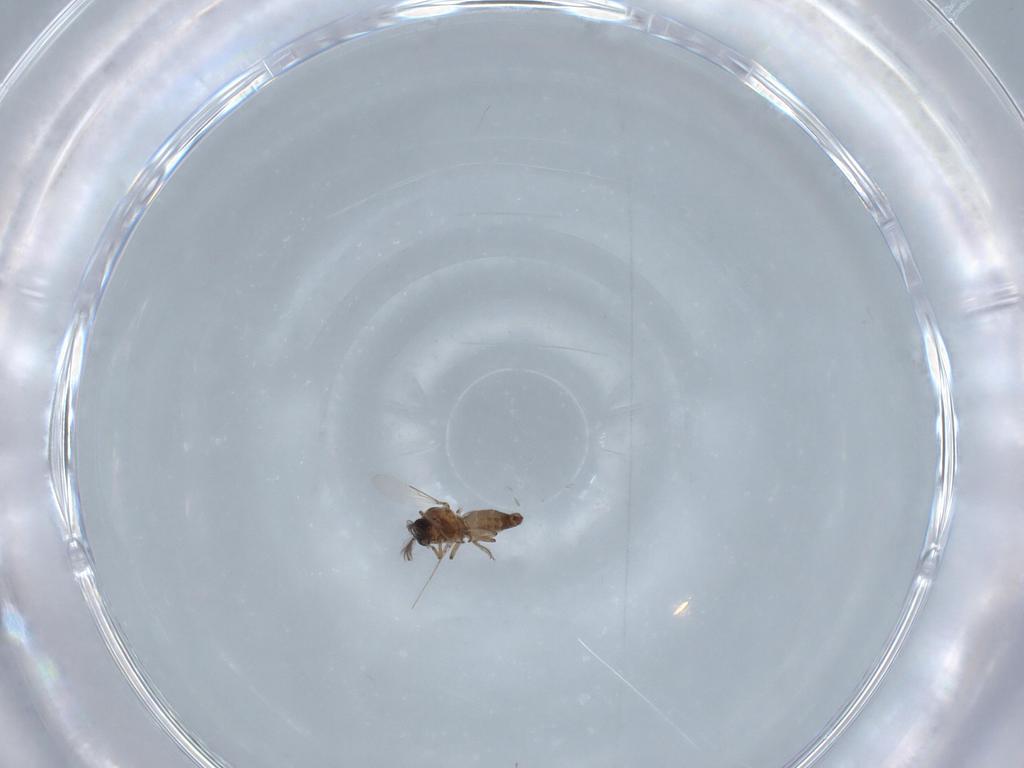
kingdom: Animalia
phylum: Arthropoda
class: Insecta
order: Diptera
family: Ceratopogonidae
